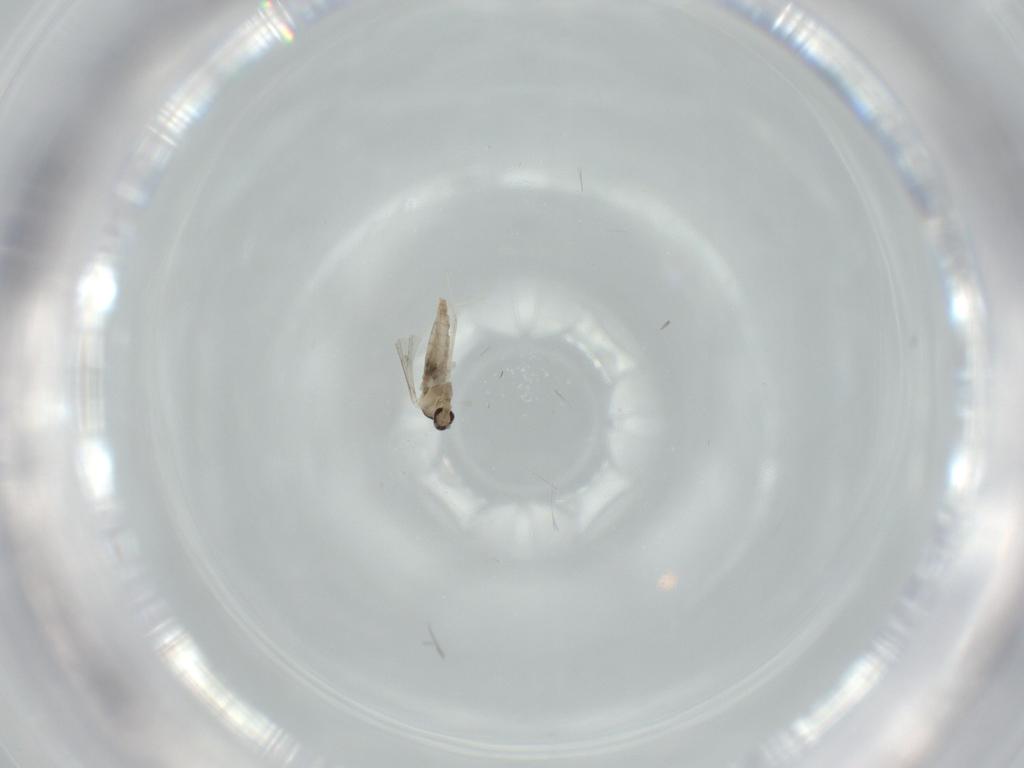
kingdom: Animalia
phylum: Arthropoda
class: Insecta
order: Diptera
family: Cecidomyiidae
